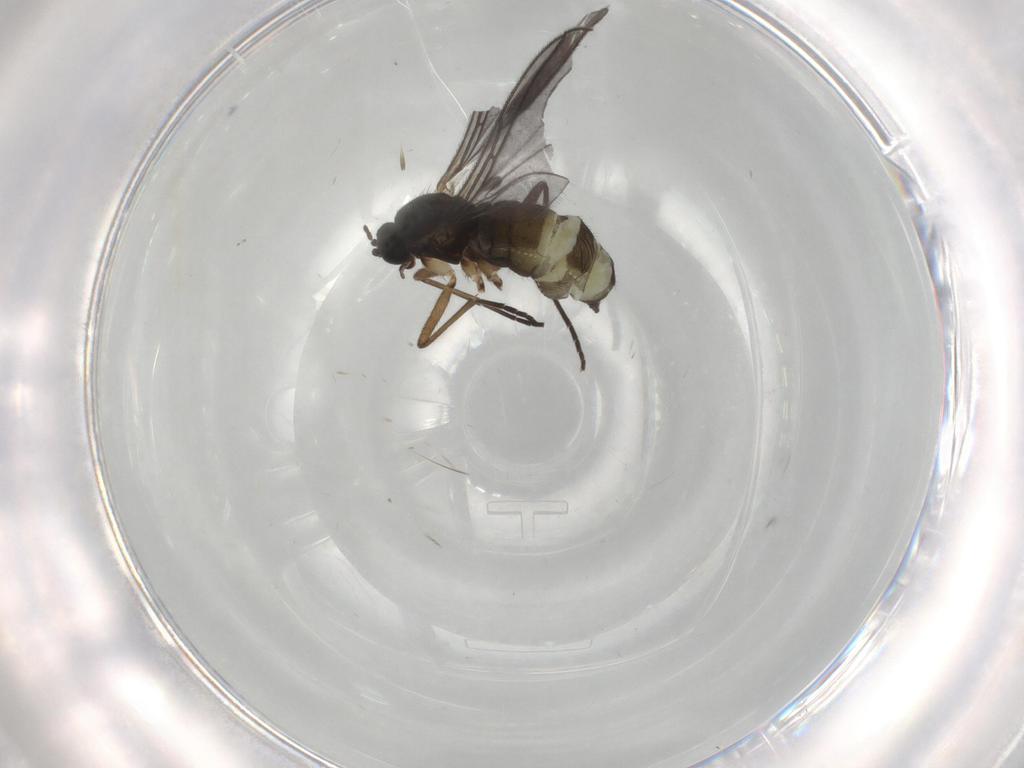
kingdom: Animalia
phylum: Arthropoda
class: Insecta
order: Diptera
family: Sciaridae
